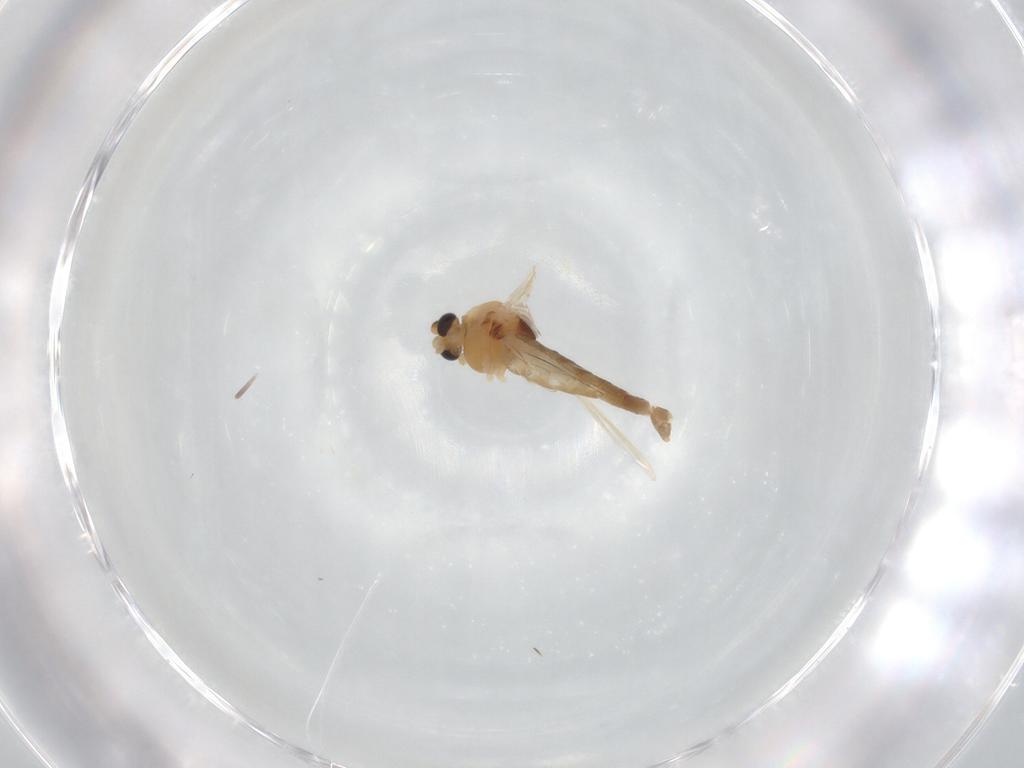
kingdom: Animalia
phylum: Arthropoda
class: Insecta
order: Diptera
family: Chironomidae
